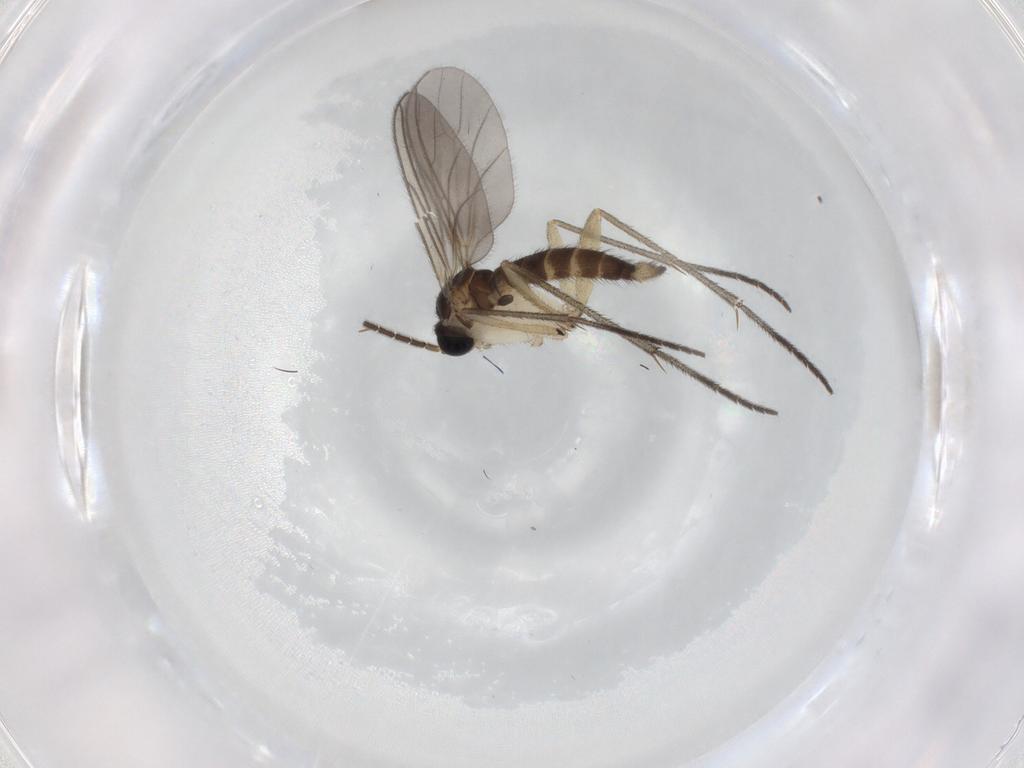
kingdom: Animalia
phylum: Arthropoda
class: Insecta
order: Diptera
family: Sciaridae
